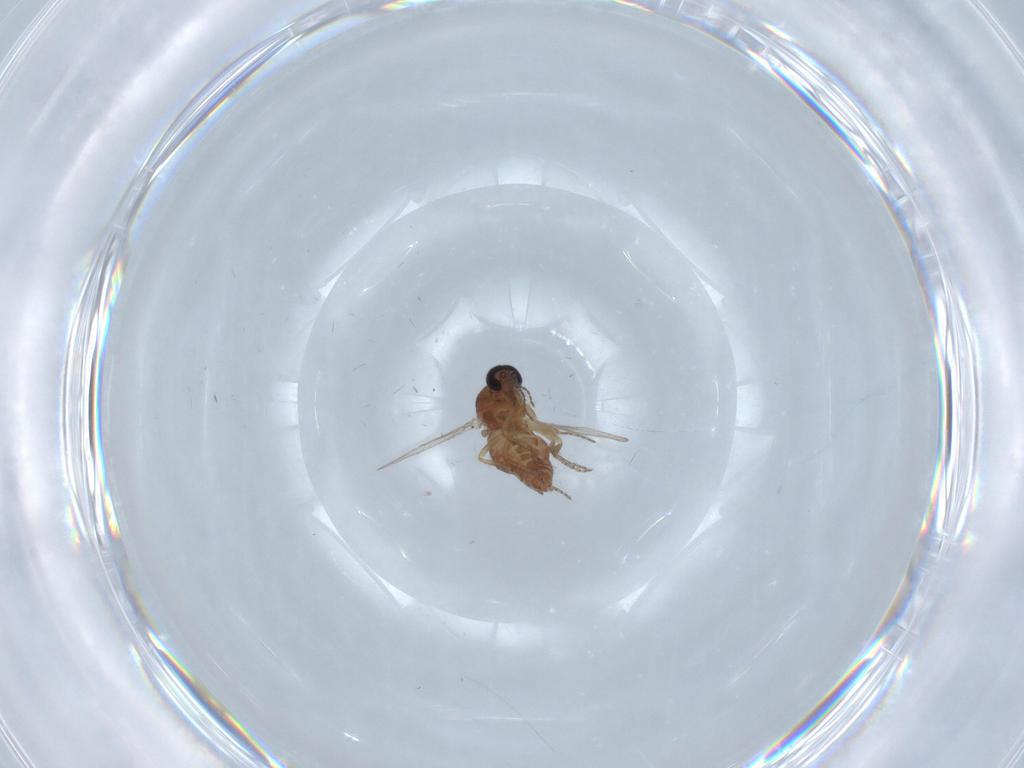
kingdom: Animalia
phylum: Arthropoda
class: Insecta
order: Diptera
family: Ceratopogonidae
